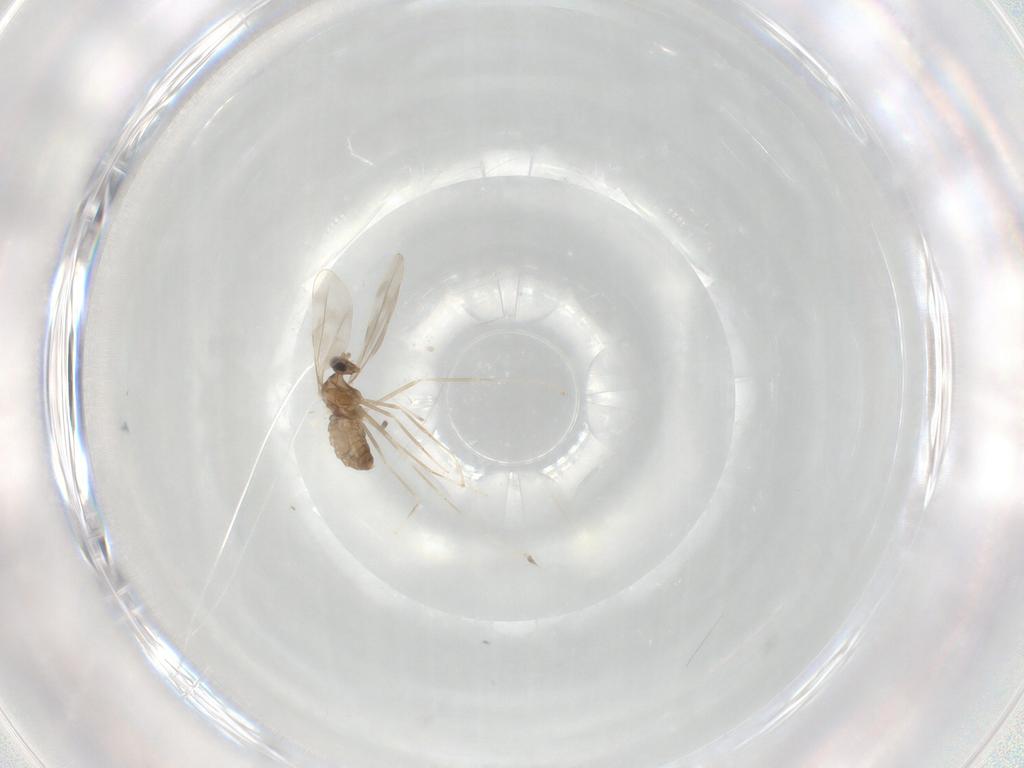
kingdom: Animalia
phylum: Arthropoda
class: Insecta
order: Diptera
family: Cecidomyiidae
